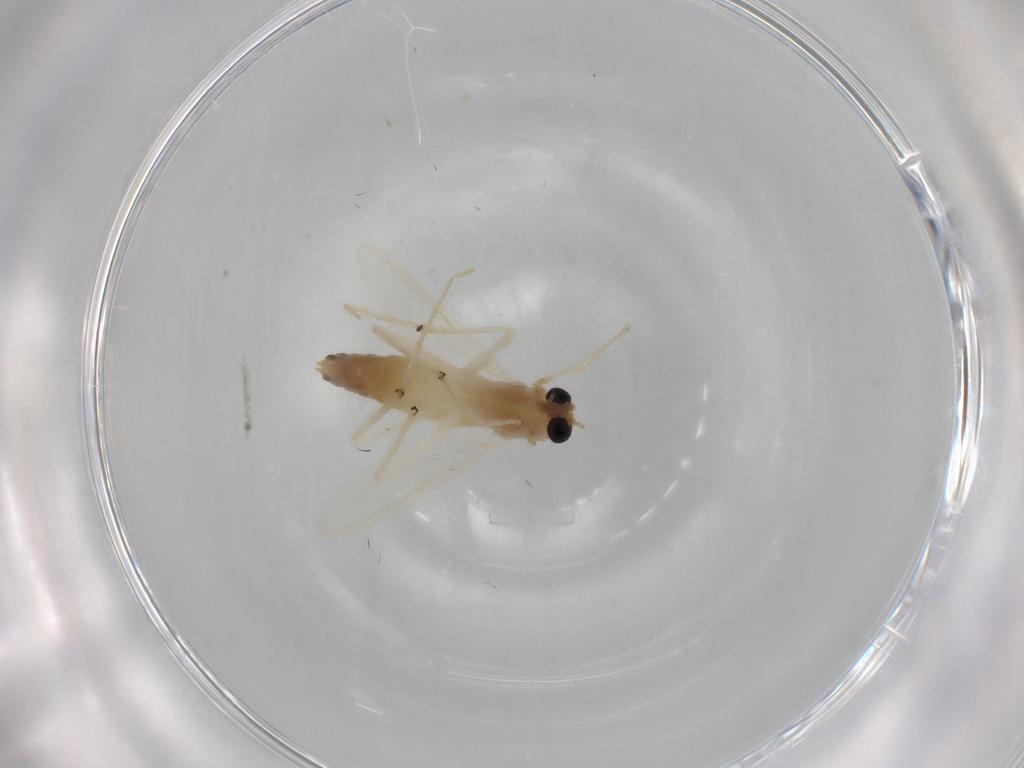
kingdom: Animalia
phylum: Arthropoda
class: Insecta
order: Diptera
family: Chironomidae
